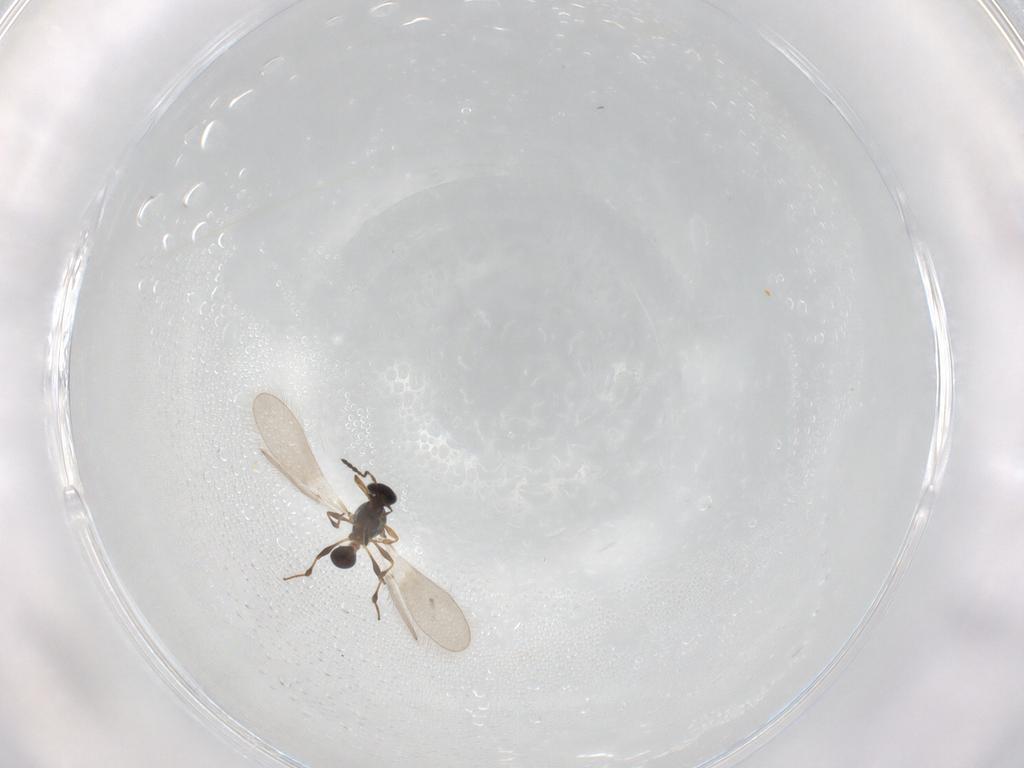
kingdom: Animalia
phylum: Arthropoda
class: Insecta
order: Hymenoptera
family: Platygastridae
